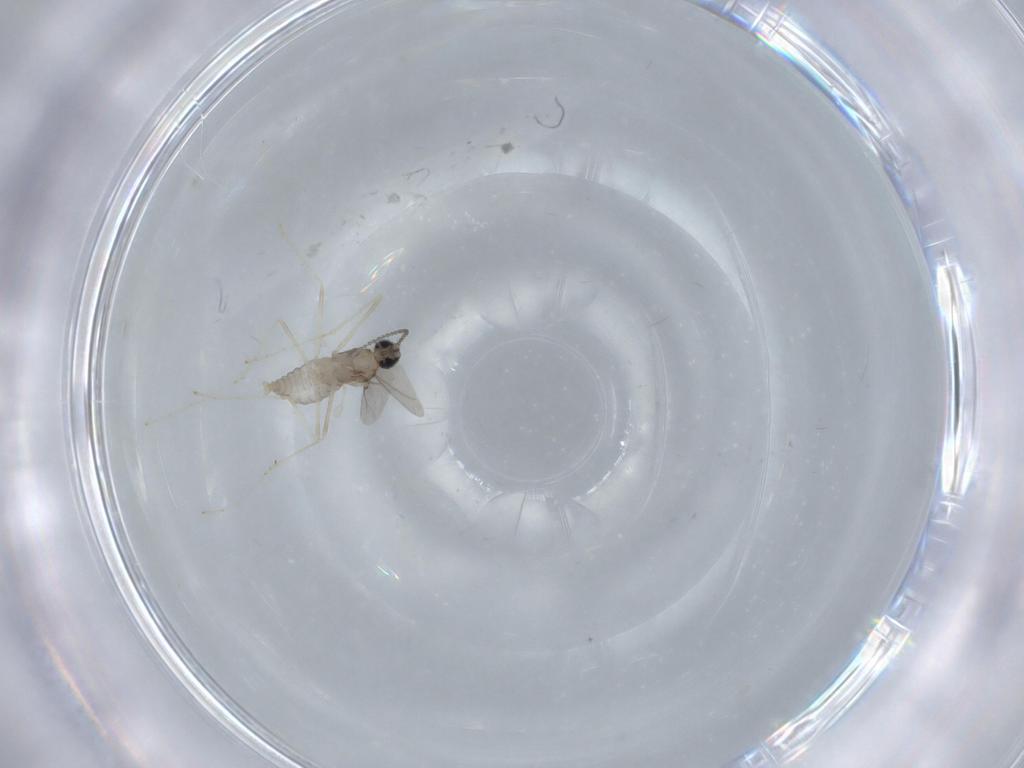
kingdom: Animalia
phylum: Arthropoda
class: Insecta
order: Diptera
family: Cecidomyiidae
